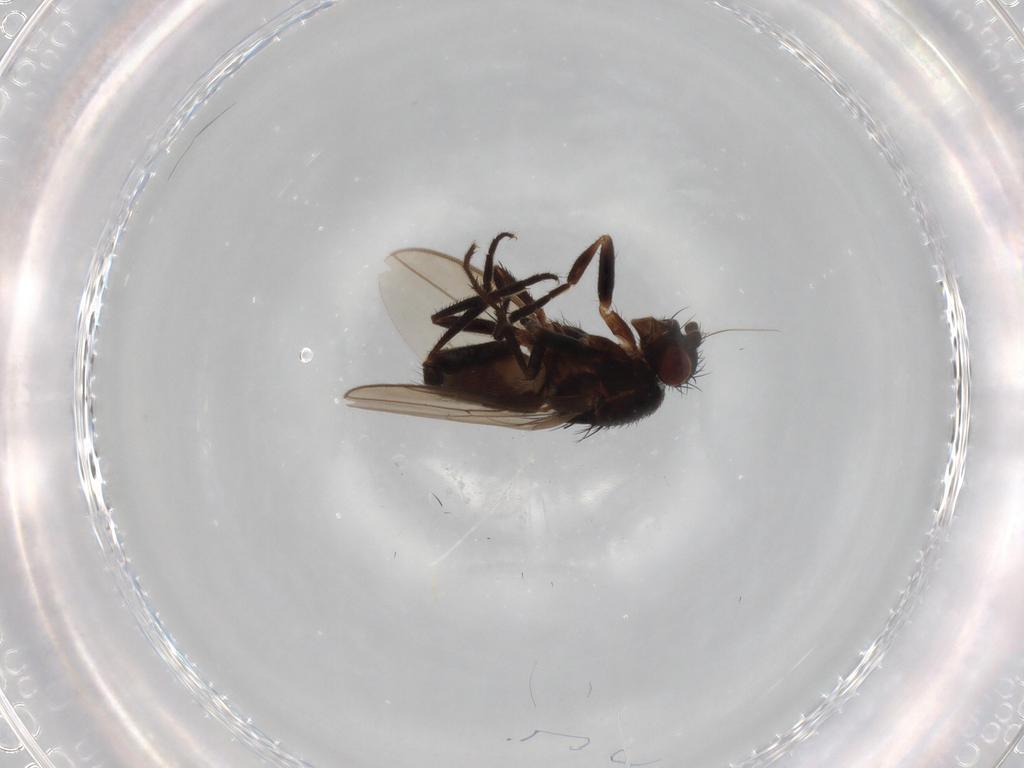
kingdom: Animalia
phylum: Arthropoda
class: Insecta
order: Diptera
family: Sphaeroceridae
